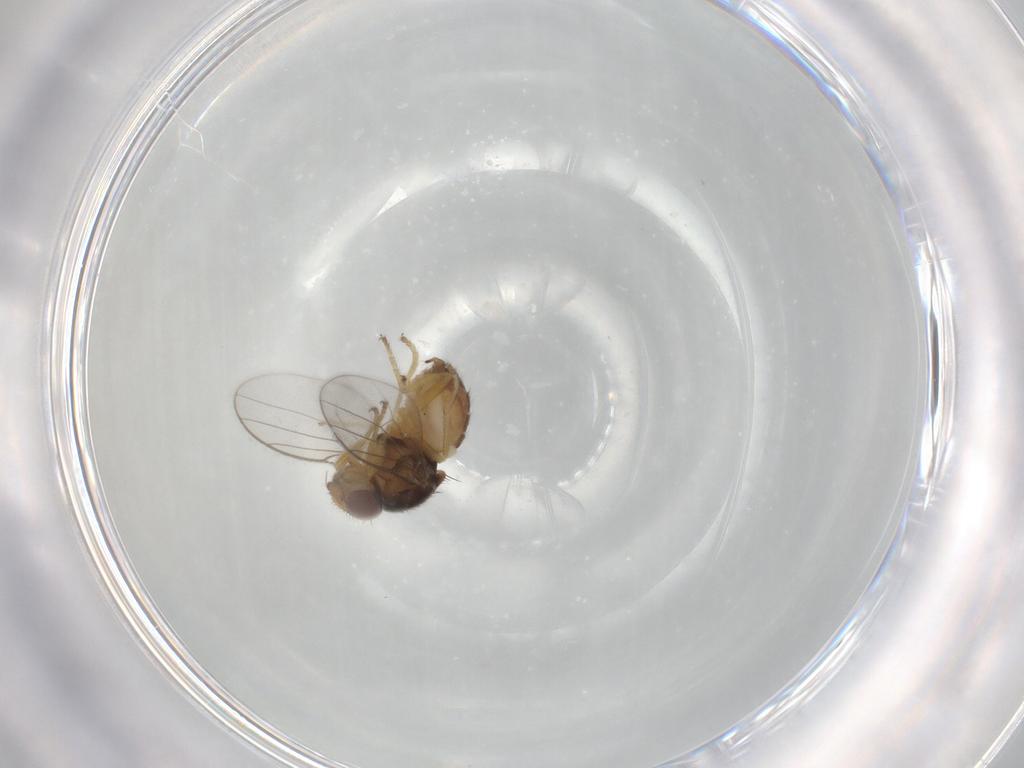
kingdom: Animalia
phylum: Arthropoda
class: Insecta
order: Diptera
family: Chloropidae
